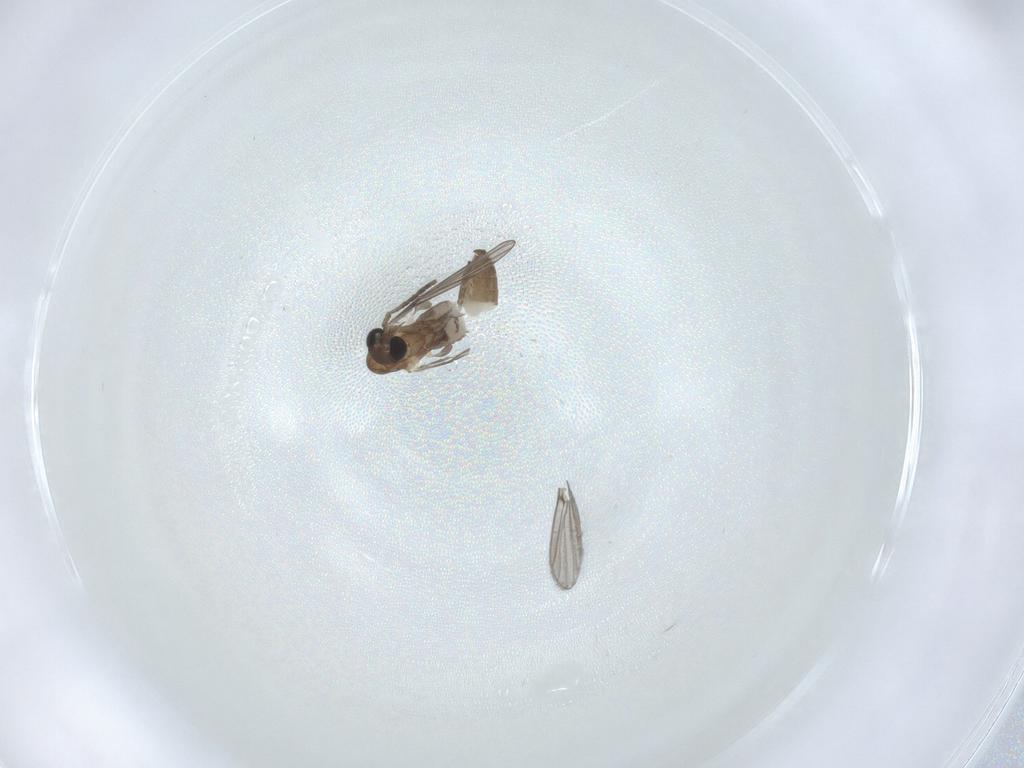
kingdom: Animalia
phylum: Arthropoda
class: Insecta
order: Diptera
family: Psychodidae
